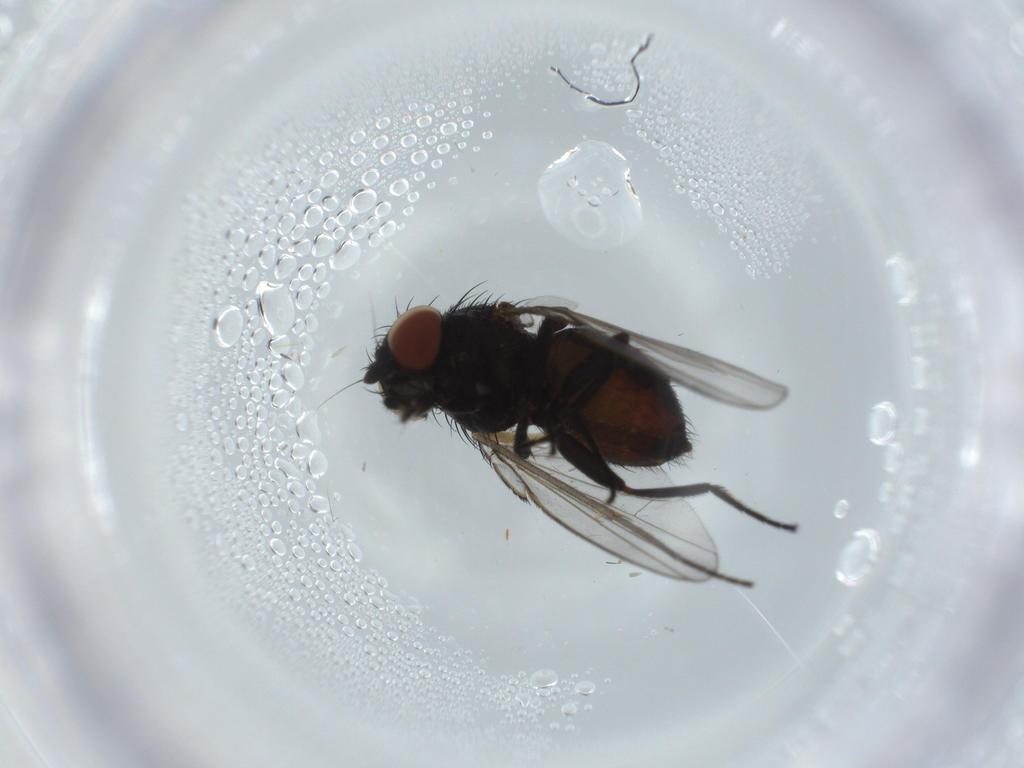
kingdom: Animalia
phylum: Arthropoda
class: Insecta
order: Diptera
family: Milichiidae
